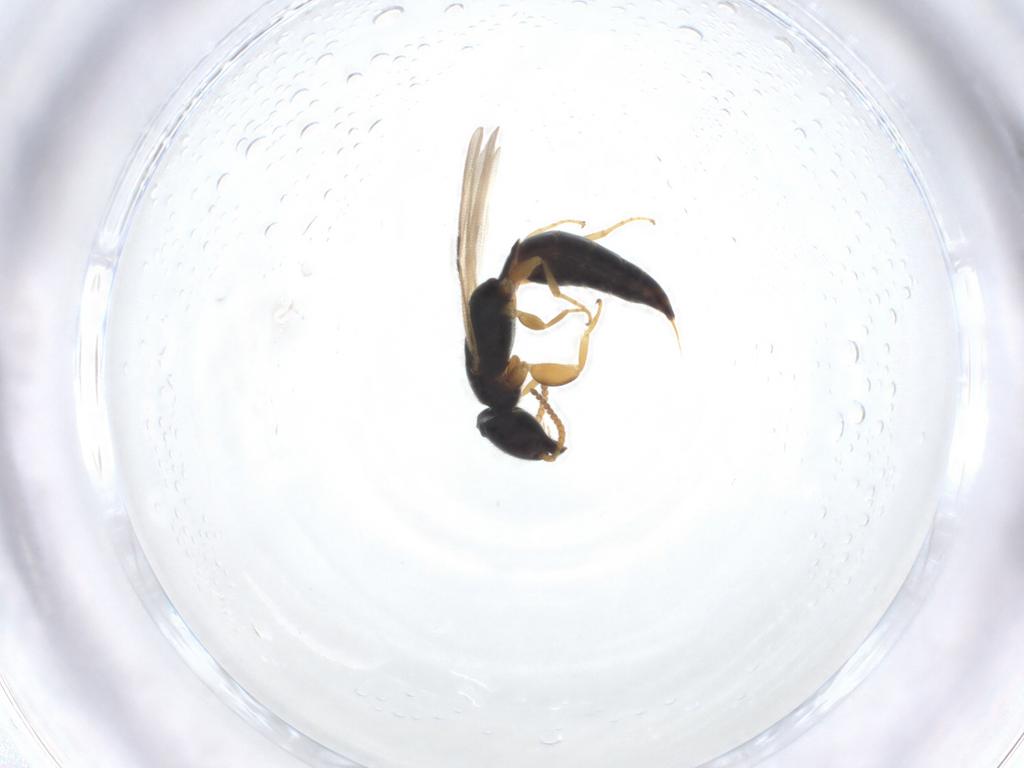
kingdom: Animalia
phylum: Arthropoda
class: Insecta
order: Hymenoptera
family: Bethylidae
